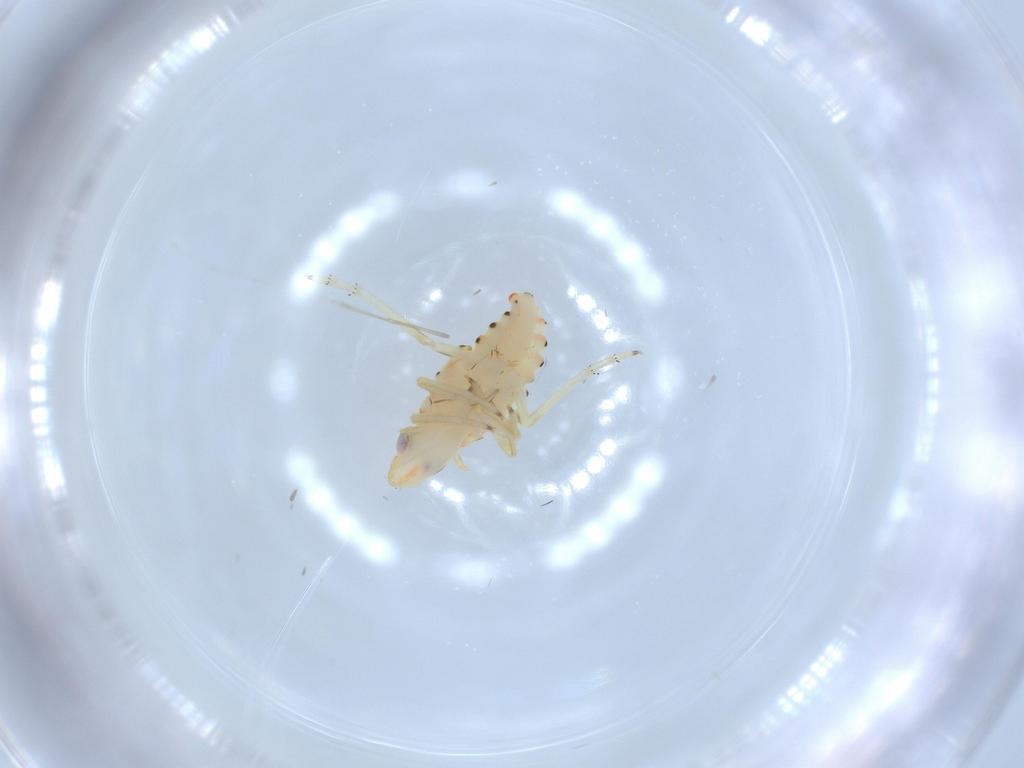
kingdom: Animalia
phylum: Arthropoda
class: Insecta
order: Hemiptera
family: Tropiduchidae
